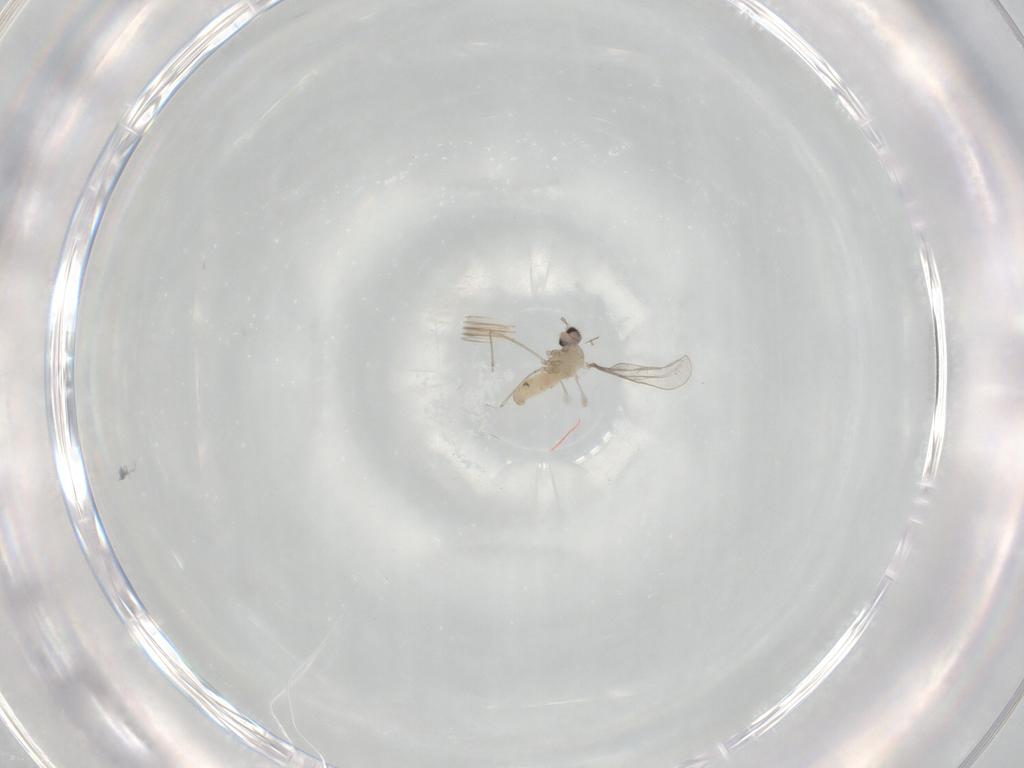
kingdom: Animalia
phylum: Arthropoda
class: Insecta
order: Diptera
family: Cecidomyiidae
